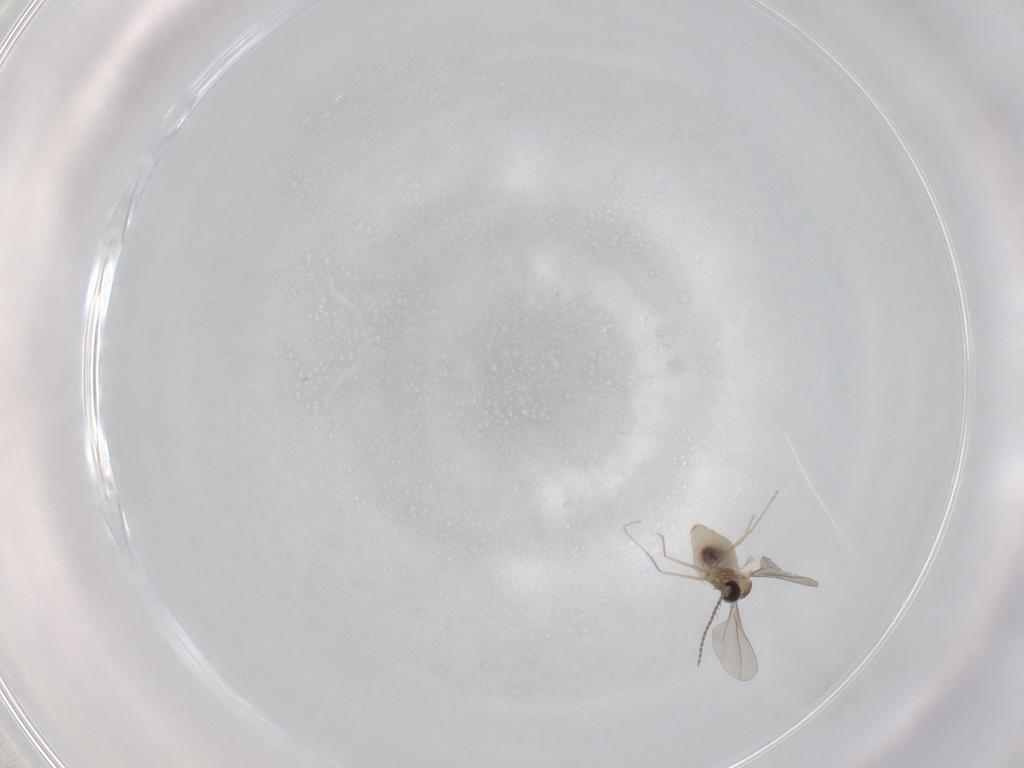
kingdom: Animalia
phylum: Arthropoda
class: Insecta
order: Diptera
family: Cecidomyiidae
